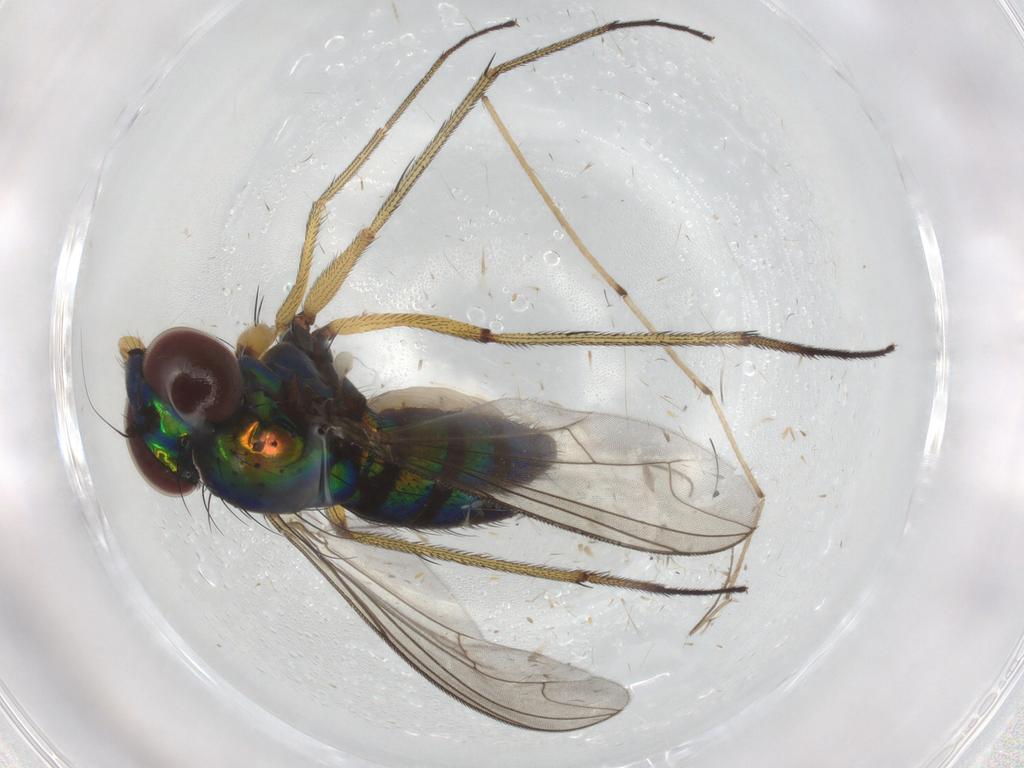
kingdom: Animalia
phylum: Arthropoda
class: Insecta
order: Diptera
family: Dolichopodidae
